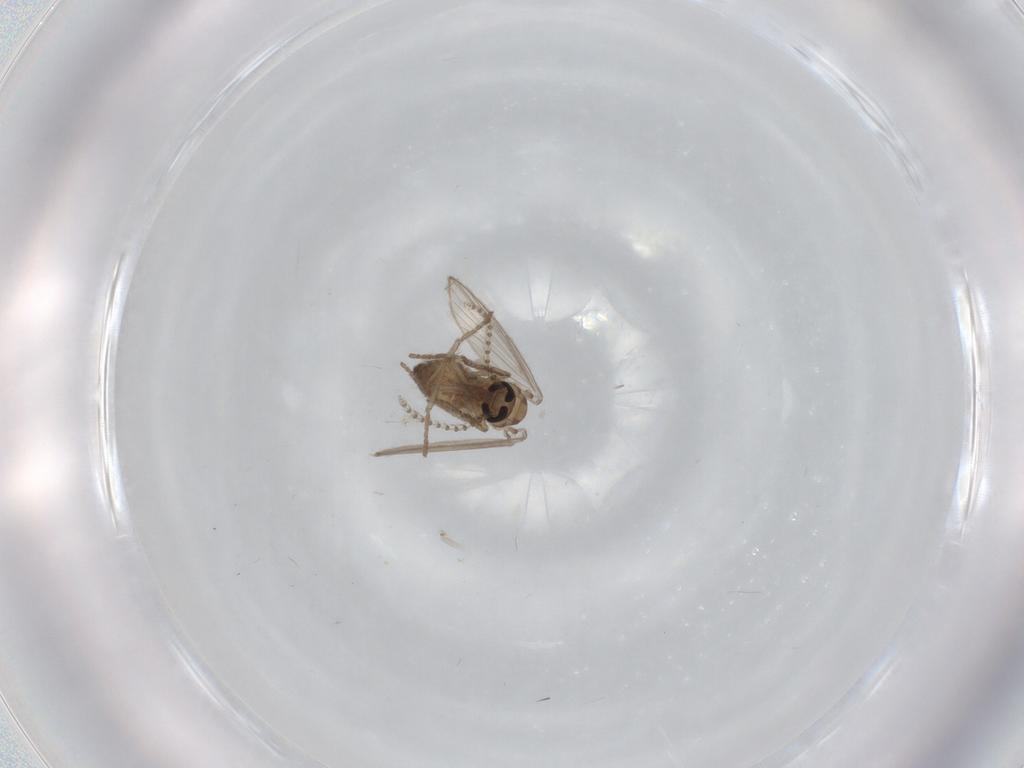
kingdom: Animalia
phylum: Arthropoda
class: Insecta
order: Diptera
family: Psychodidae
